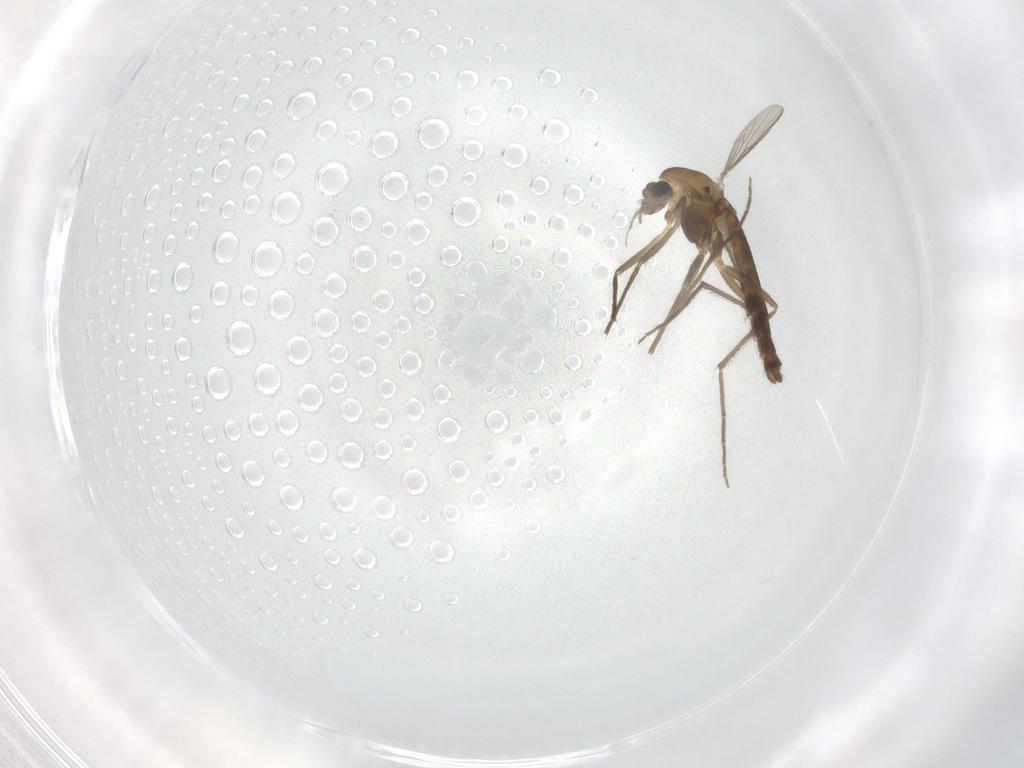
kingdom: Animalia
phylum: Arthropoda
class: Insecta
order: Diptera
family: Chironomidae
